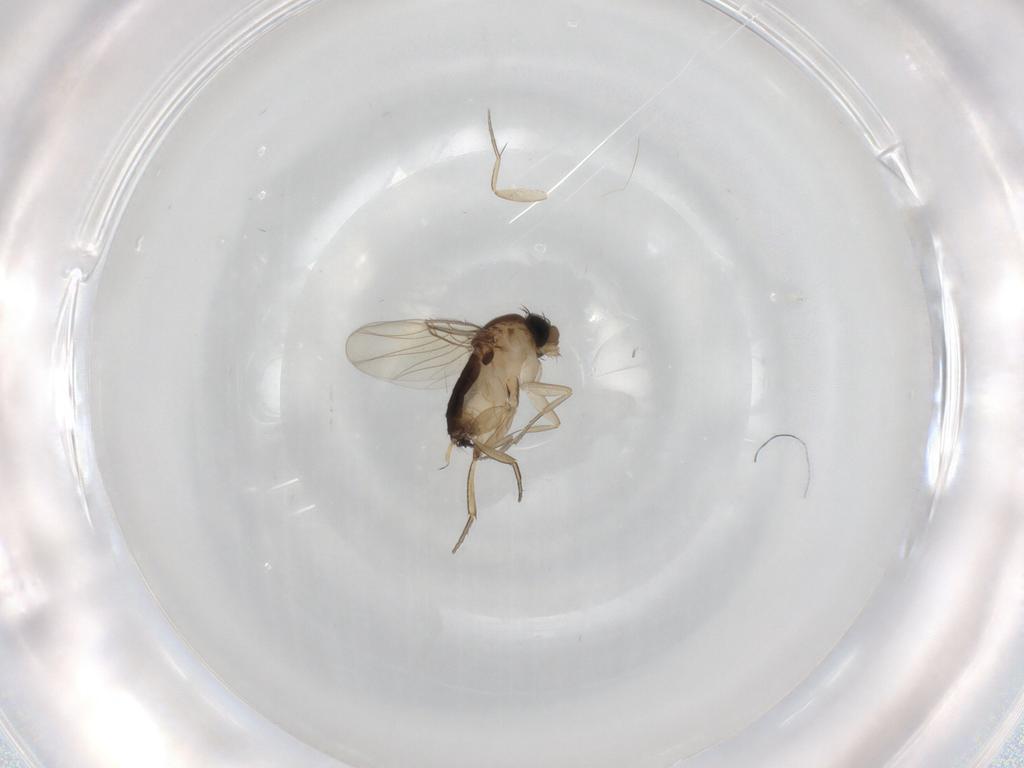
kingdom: Animalia
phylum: Arthropoda
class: Insecta
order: Diptera
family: Phoridae
